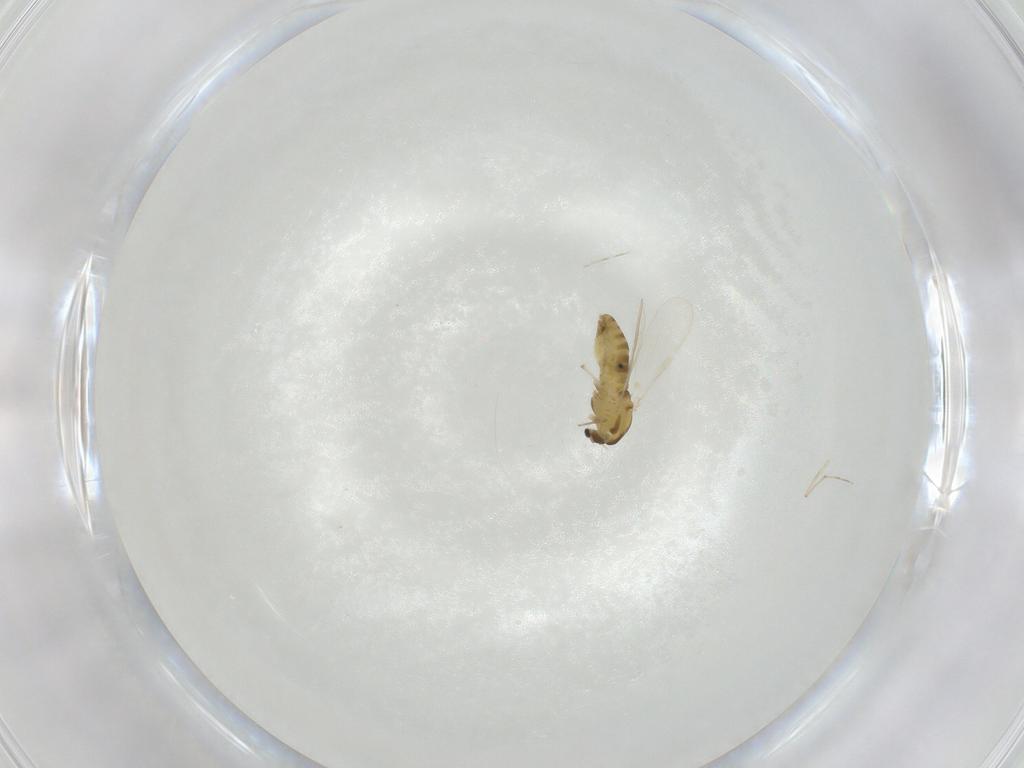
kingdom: Animalia
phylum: Arthropoda
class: Insecta
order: Diptera
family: Chironomidae
